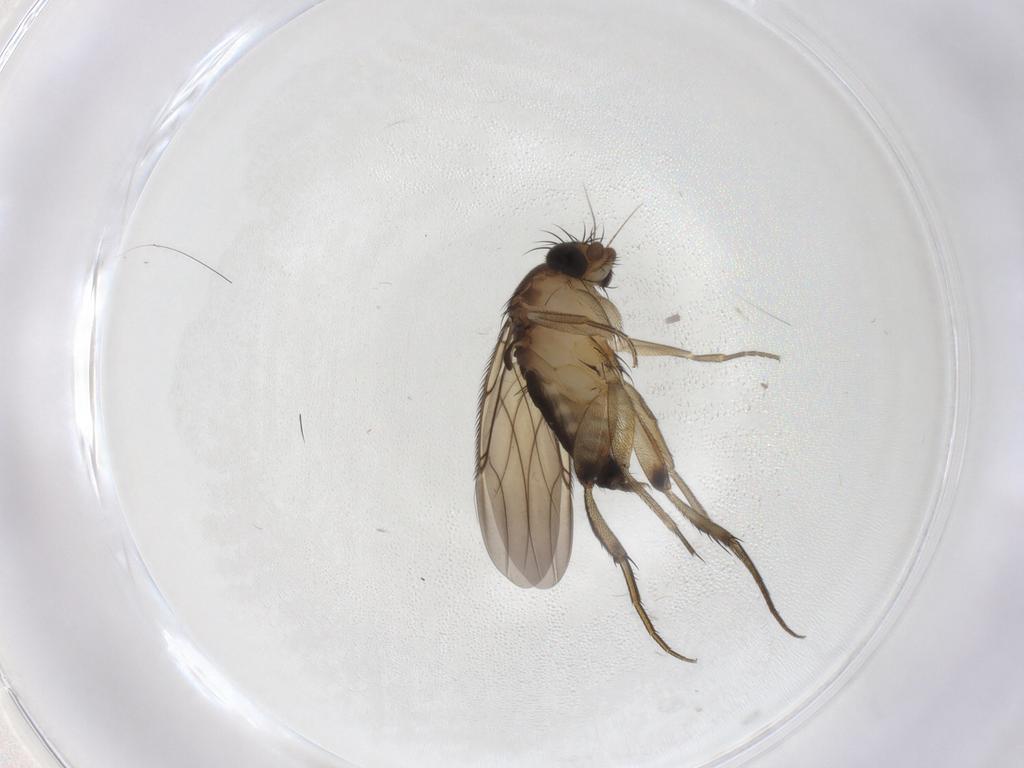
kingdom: Animalia
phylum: Arthropoda
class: Insecta
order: Diptera
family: Phoridae
